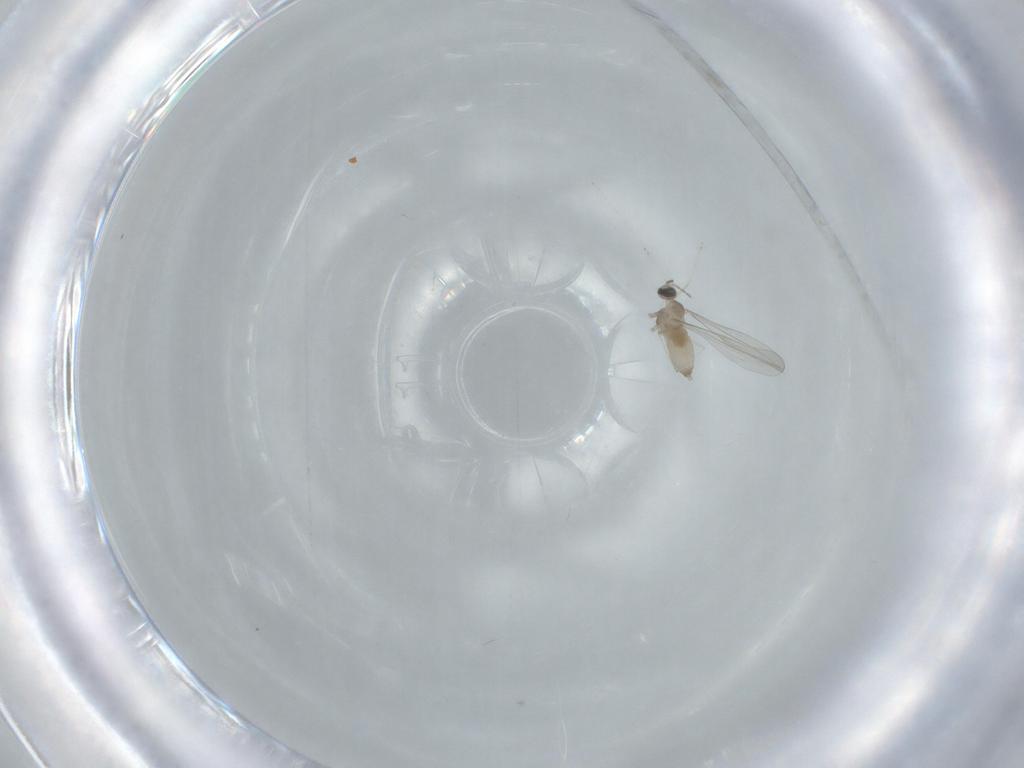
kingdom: Animalia
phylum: Arthropoda
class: Insecta
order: Diptera
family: Cecidomyiidae
